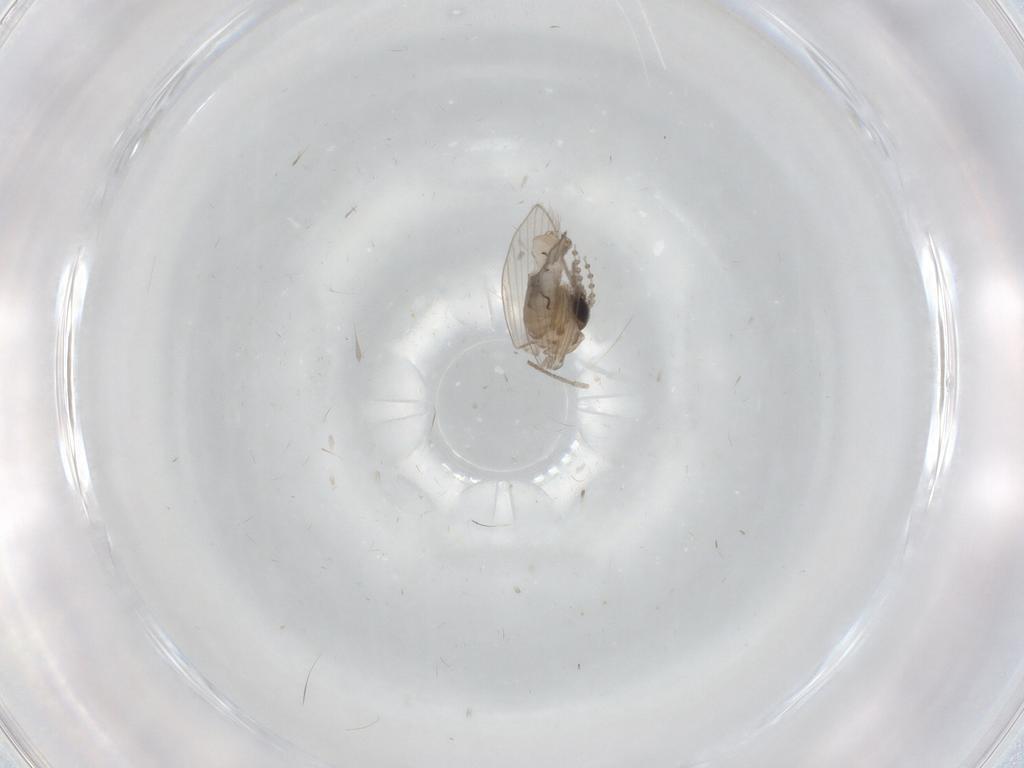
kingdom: Animalia
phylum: Arthropoda
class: Insecta
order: Diptera
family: Psychodidae
